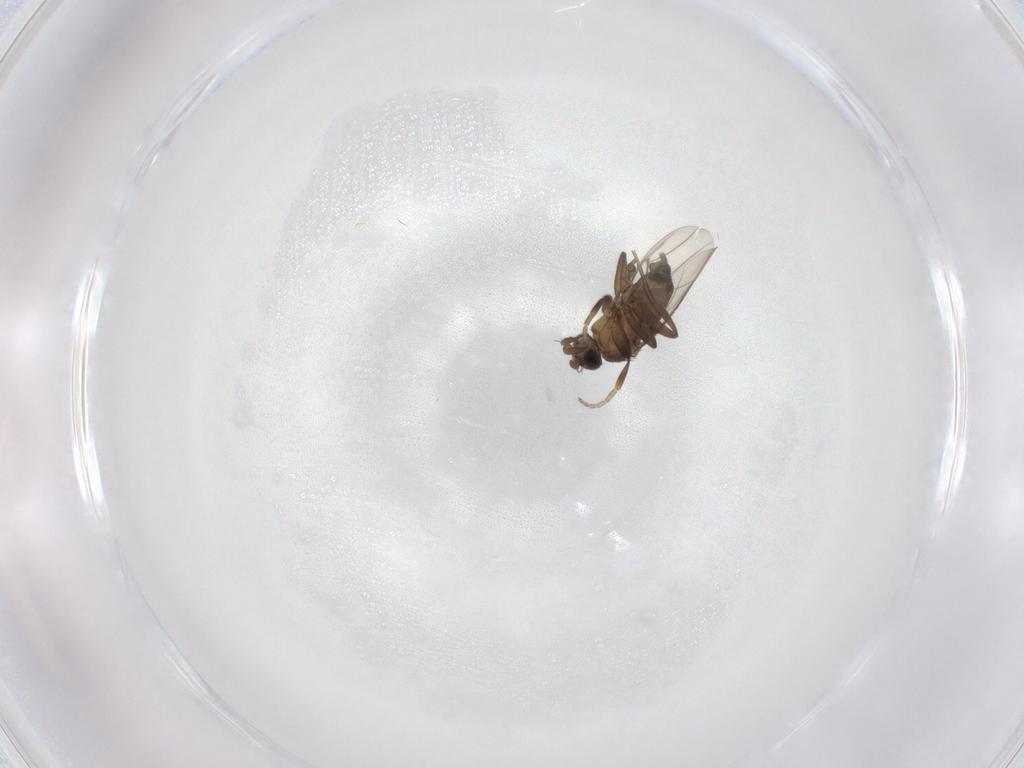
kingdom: Animalia
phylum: Arthropoda
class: Insecta
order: Diptera
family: Phoridae
